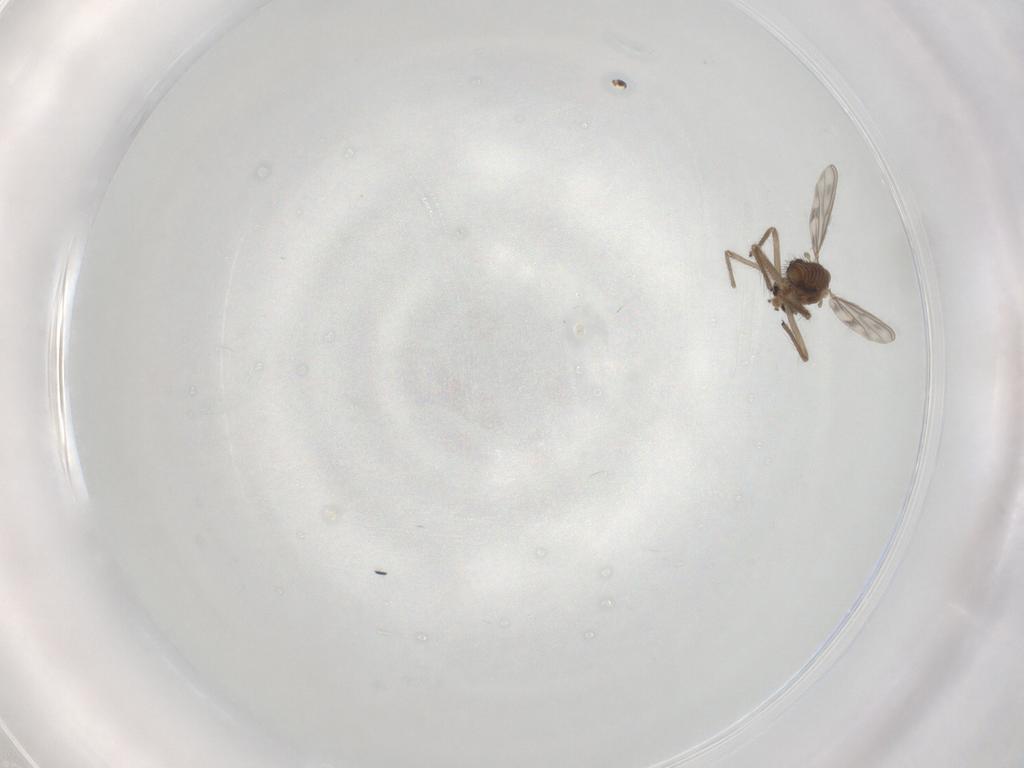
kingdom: Animalia
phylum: Arthropoda
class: Insecta
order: Diptera
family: Chironomidae
